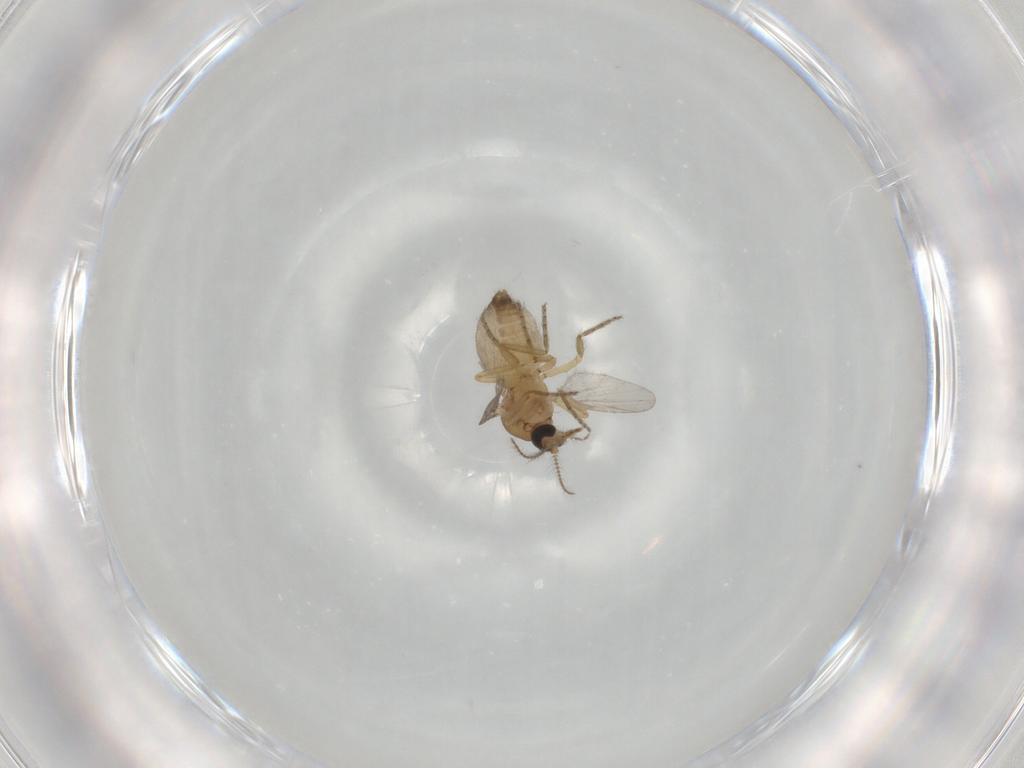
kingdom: Animalia
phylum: Arthropoda
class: Insecta
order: Diptera
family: Ceratopogonidae
